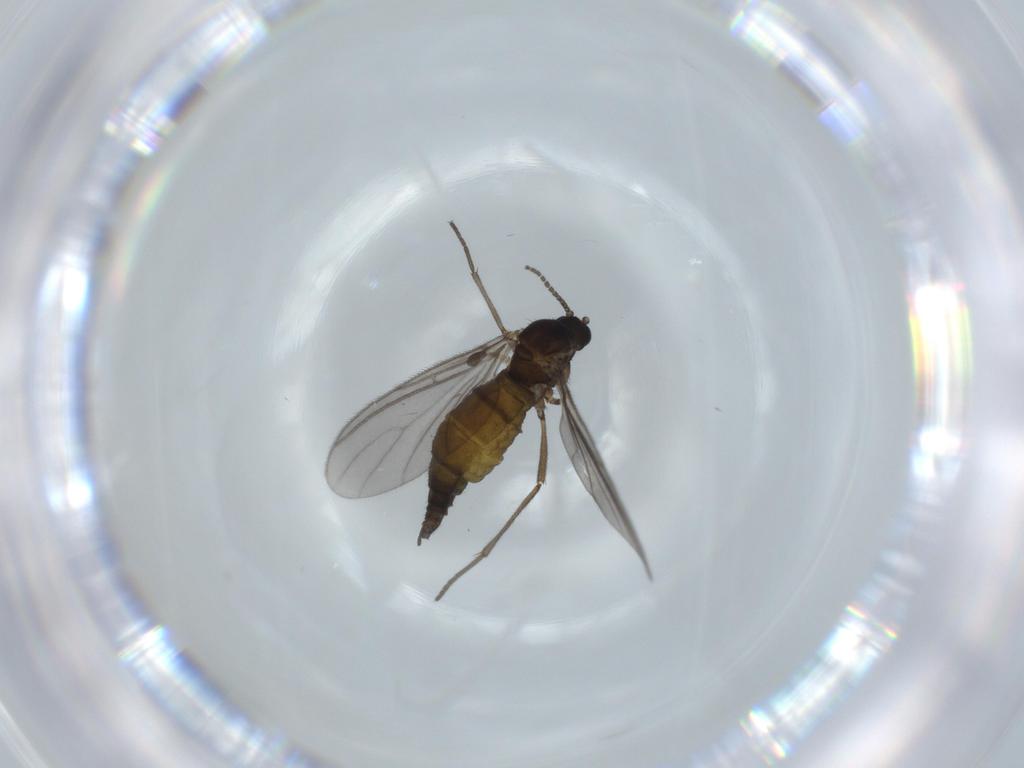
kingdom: Animalia
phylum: Arthropoda
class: Insecta
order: Diptera
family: Sciaridae
